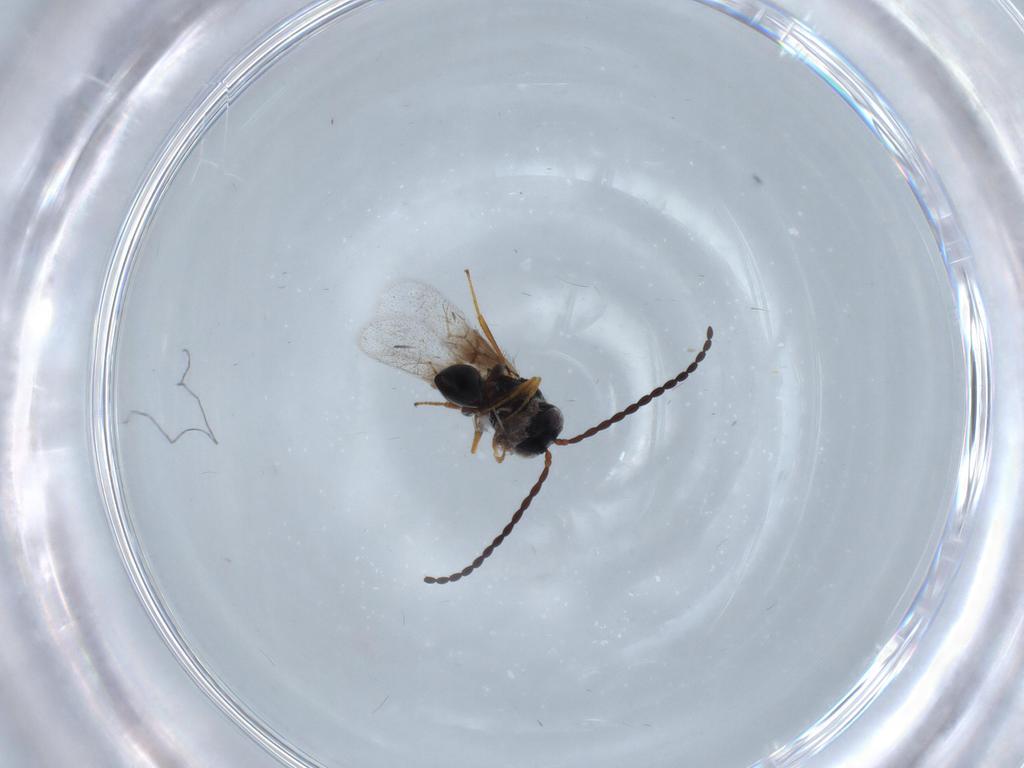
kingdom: Animalia
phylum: Arthropoda
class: Insecta
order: Hymenoptera
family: Figitidae
